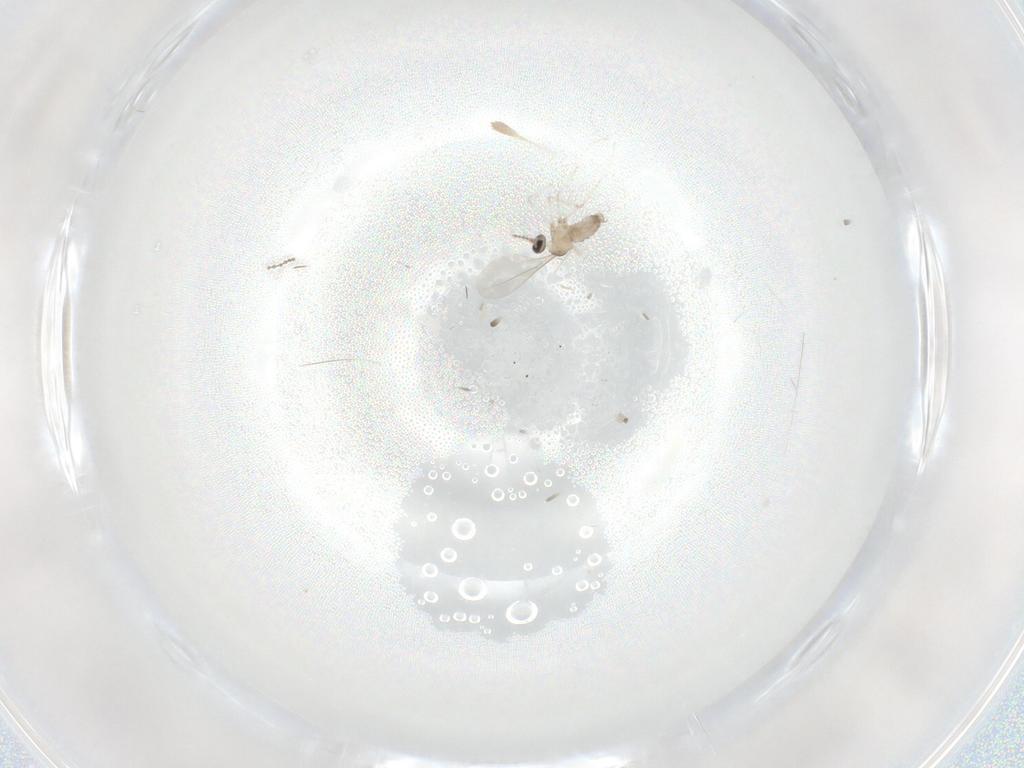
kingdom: Animalia
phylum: Arthropoda
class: Insecta
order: Diptera
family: Cecidomyiidae
